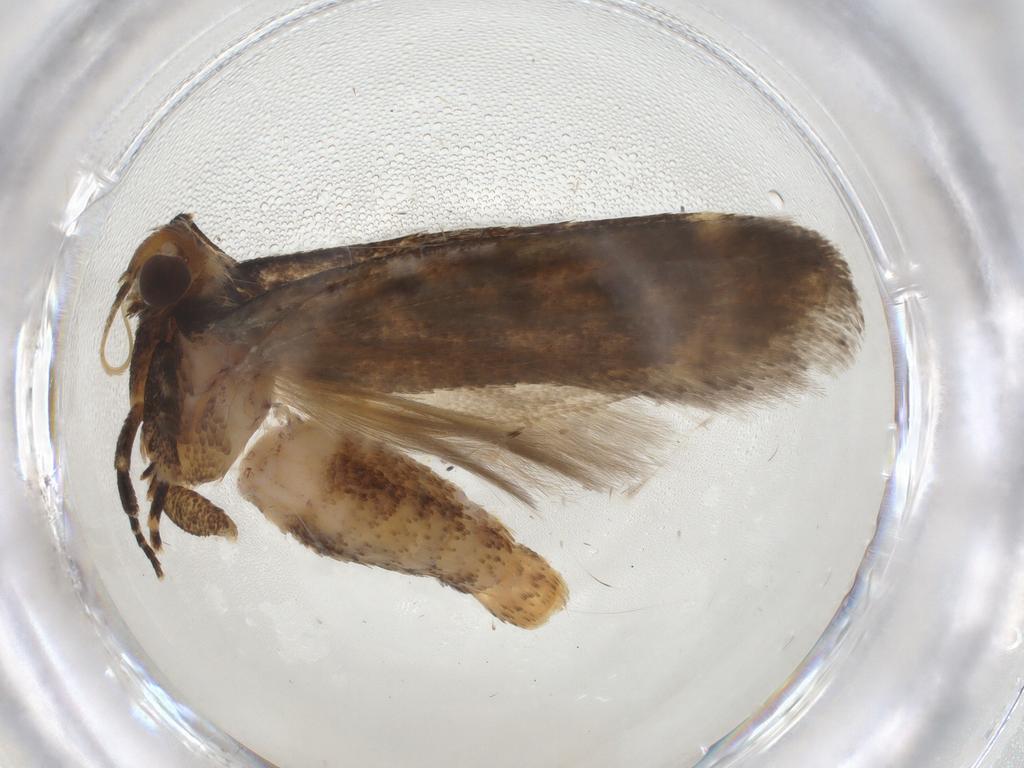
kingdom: Animalia
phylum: Arthropoda
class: Insecta
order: Lepidoptera
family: Gelechiidae
